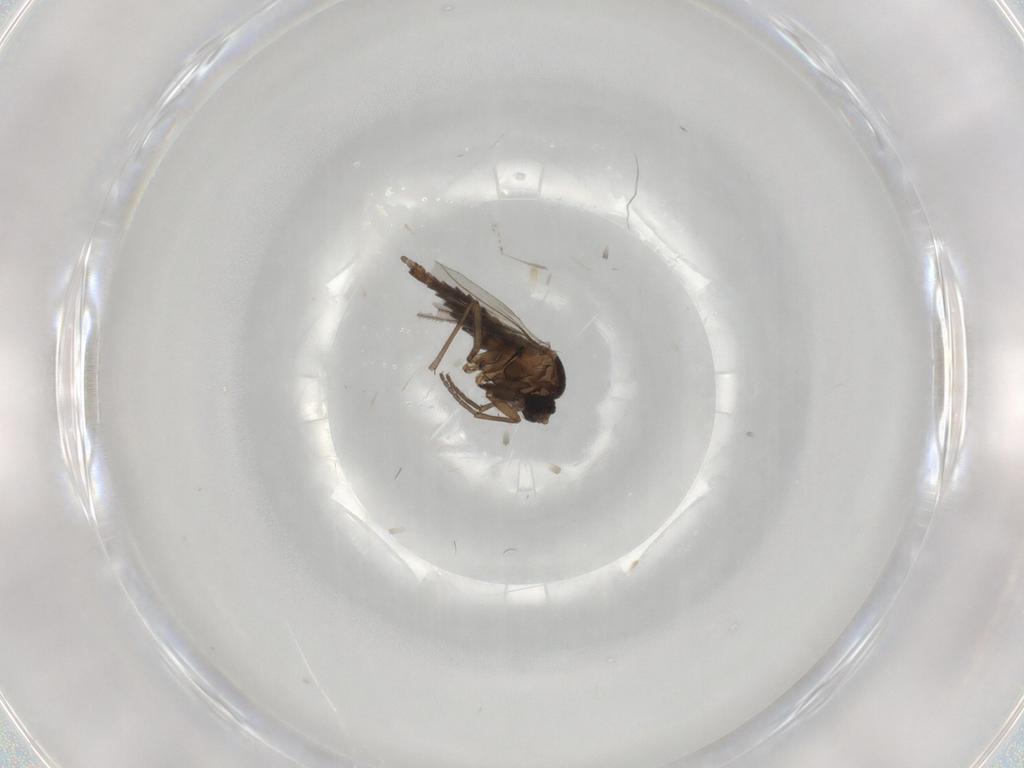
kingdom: Animalia
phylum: Arthropoda
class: Insecta
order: Diptera
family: Sciaridae
